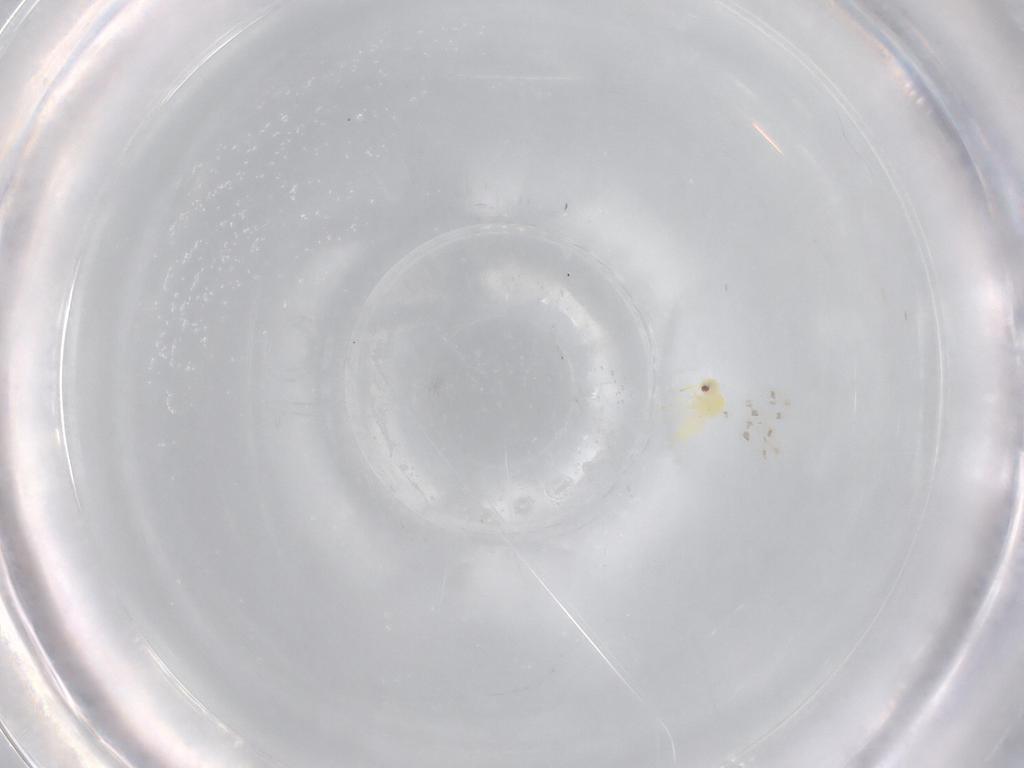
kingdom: Animalia
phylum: Arthropoda
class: Insecta
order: Hemiptera
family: Aleyrodidae
